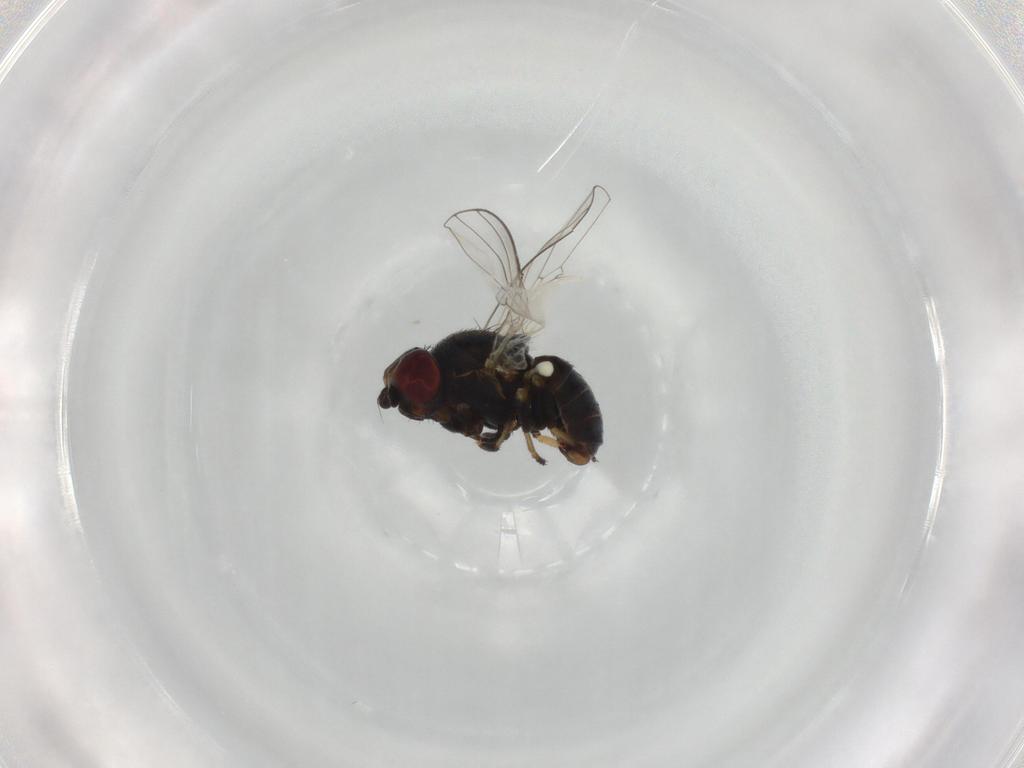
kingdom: Animalia
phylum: Arthropoda
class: Insecta
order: Diptera
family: Chamaemyiidae
